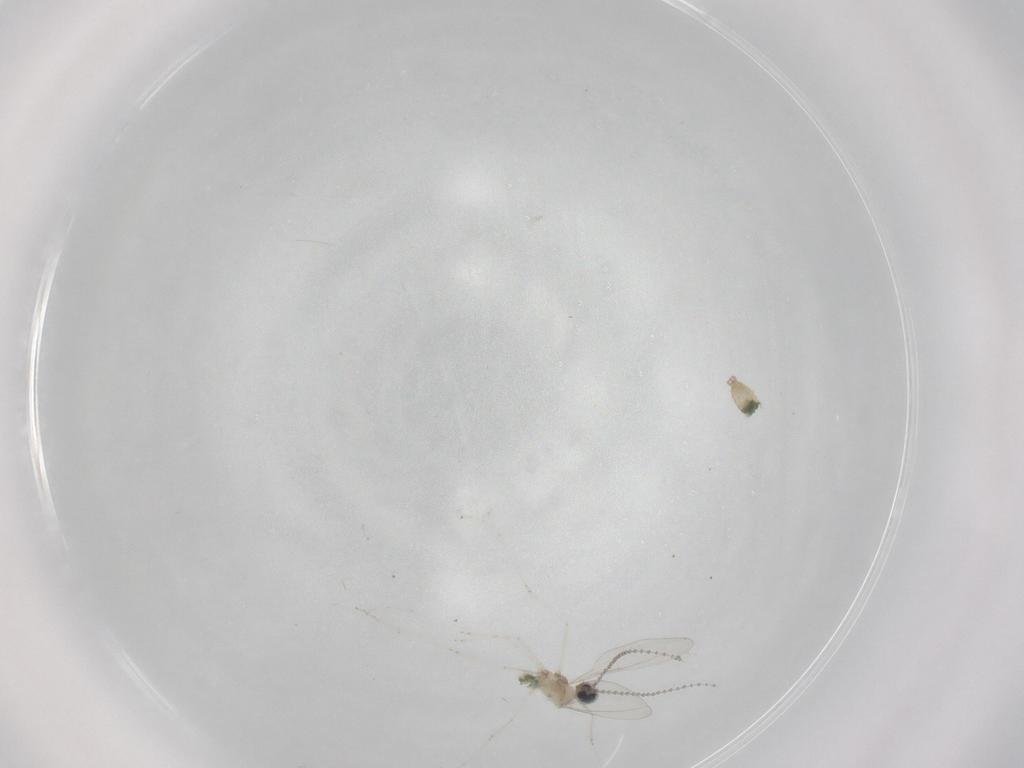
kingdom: Animalia
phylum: Arthropoda
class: Insecta
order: Diptera
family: Cecidomyiidae
